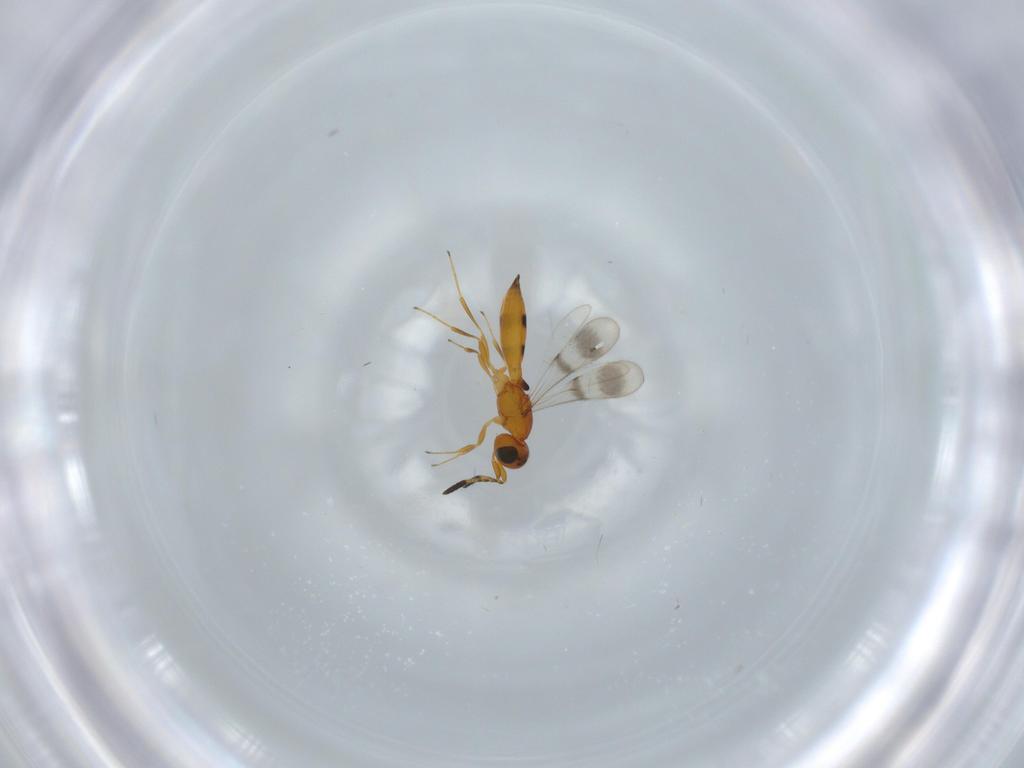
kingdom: Animalia
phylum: Arthropoda
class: Insecta
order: Hymenoptera
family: Scelionidae
